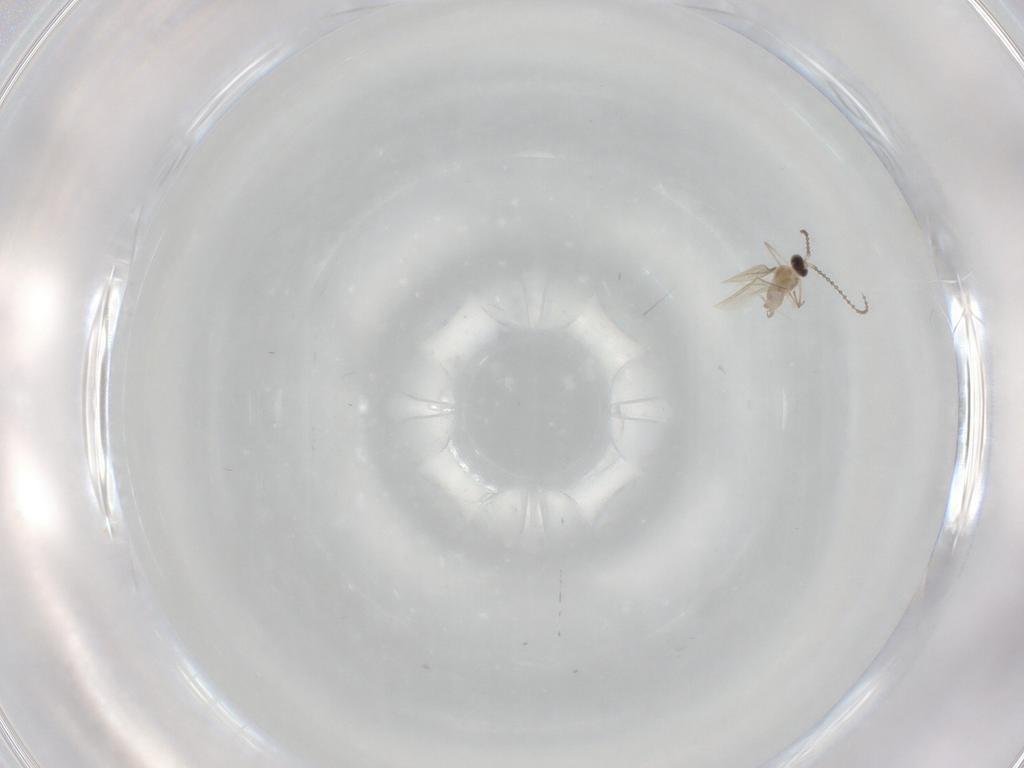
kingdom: Animalia
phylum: Arthropoda
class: Insecta
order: Diptera
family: Cecidomyiidae
